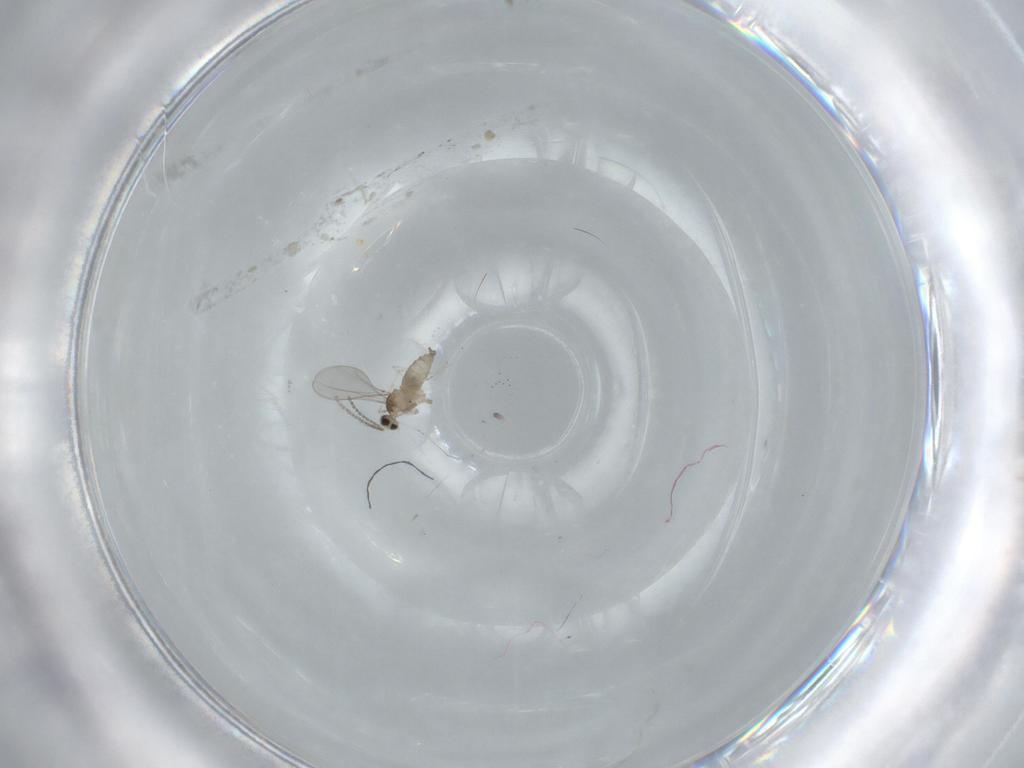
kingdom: Animalia
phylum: Arthropoda
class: Insecta
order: Diptera
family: Cecidomyiidae
